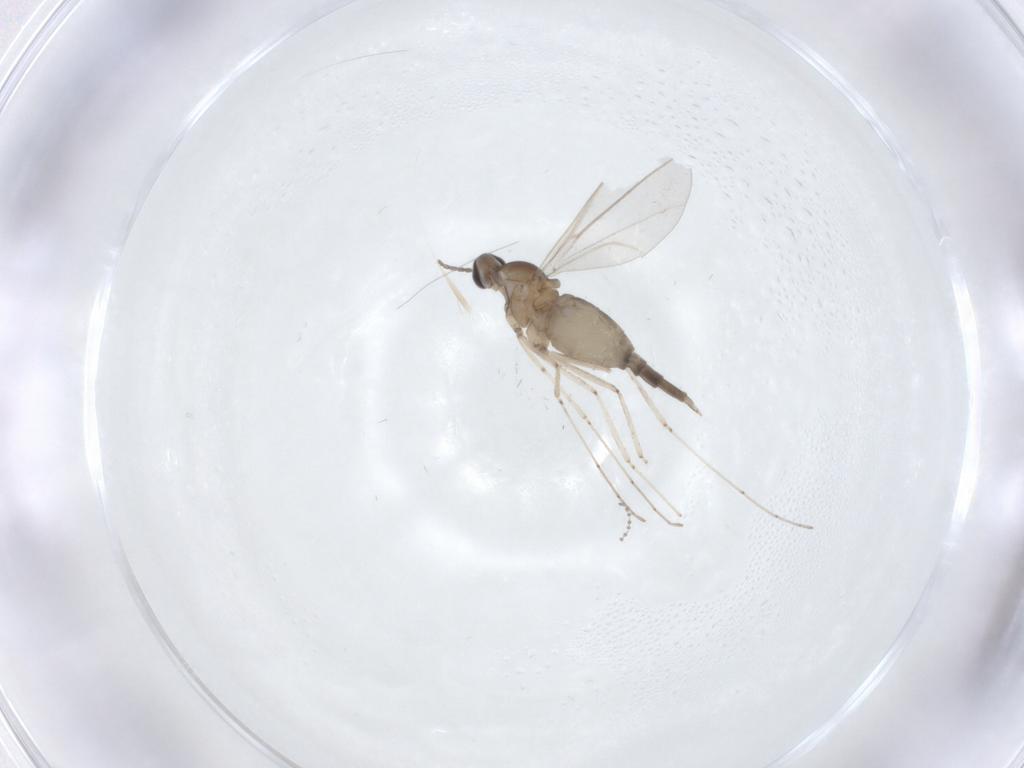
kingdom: Animalia
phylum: Arthropoda
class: Insecta
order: Diptera
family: Cecidomyiidae
